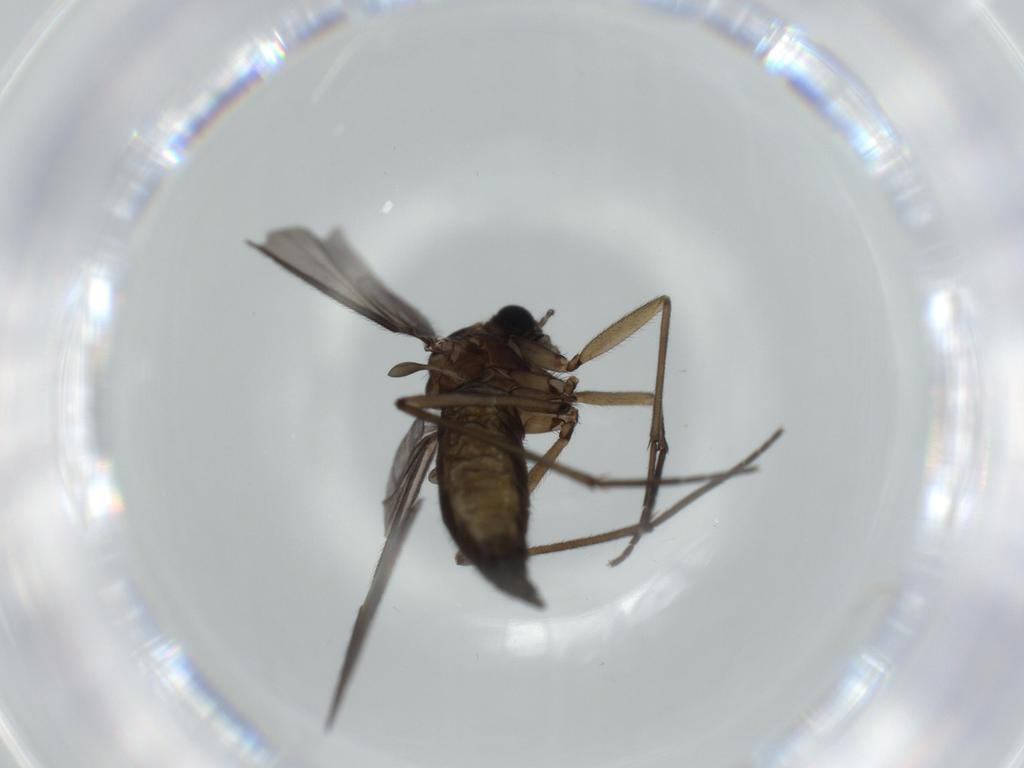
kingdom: Animalia
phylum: Arthropoda
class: Insecta
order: Diptera
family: Sciaridae
